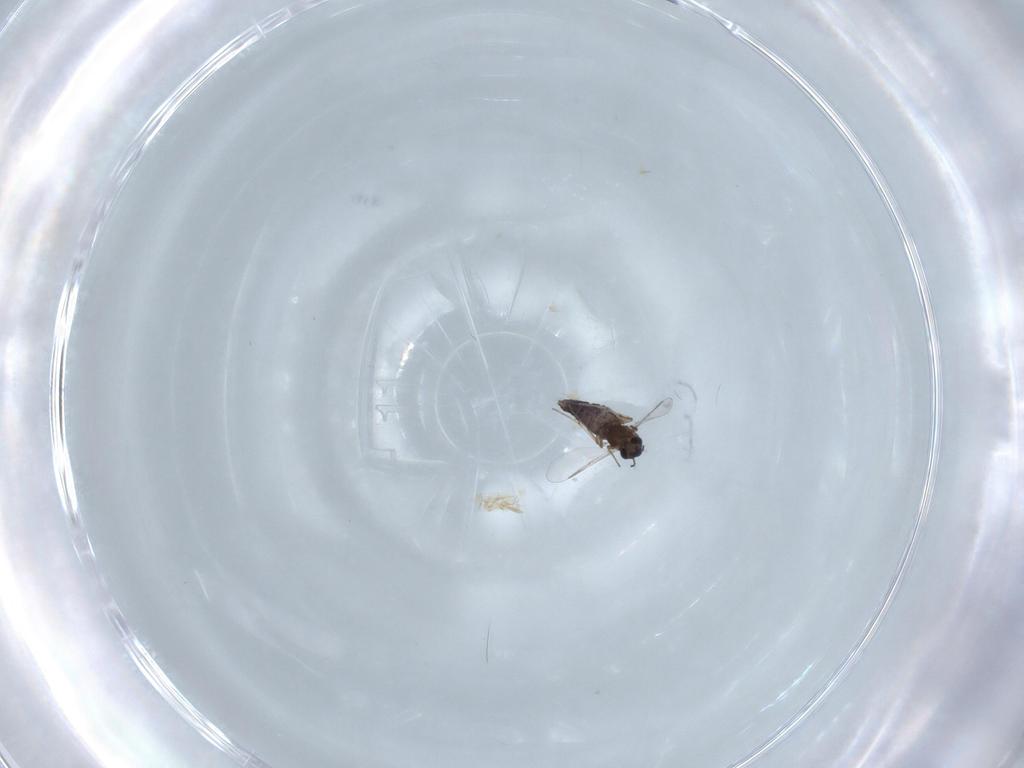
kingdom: Animalia
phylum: Arthropoda
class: Insecta
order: Diptera
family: Chironomidae
